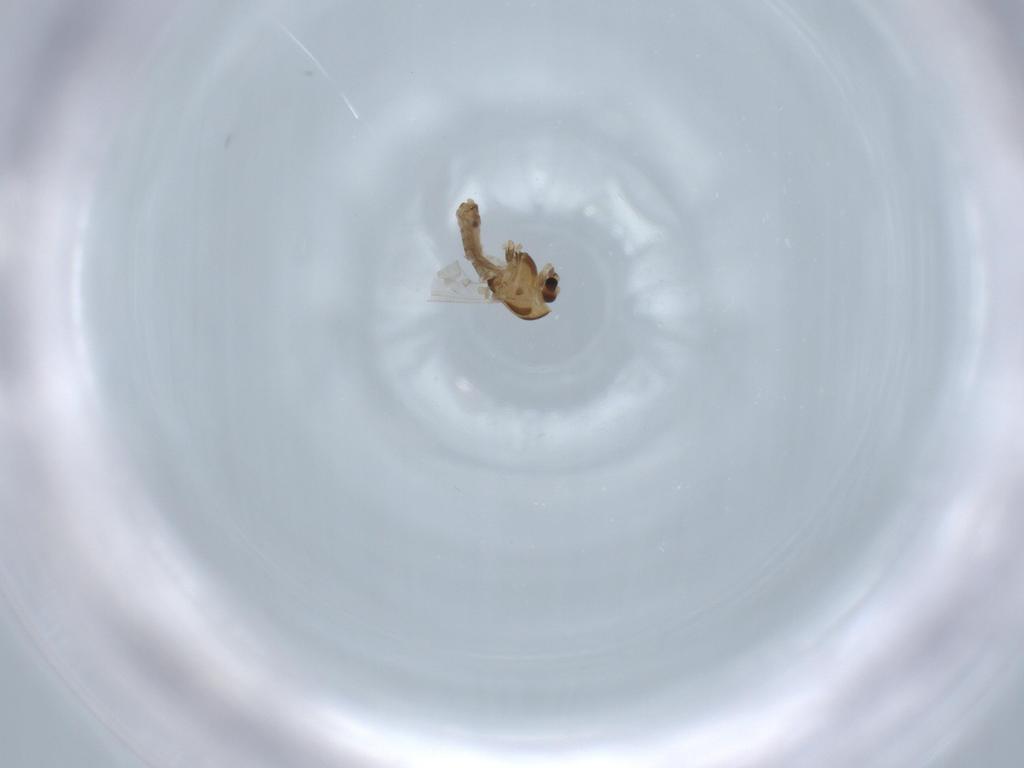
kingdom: Animalia
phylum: Arthropoda
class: Insecta
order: Diptera
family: Chironomidae
